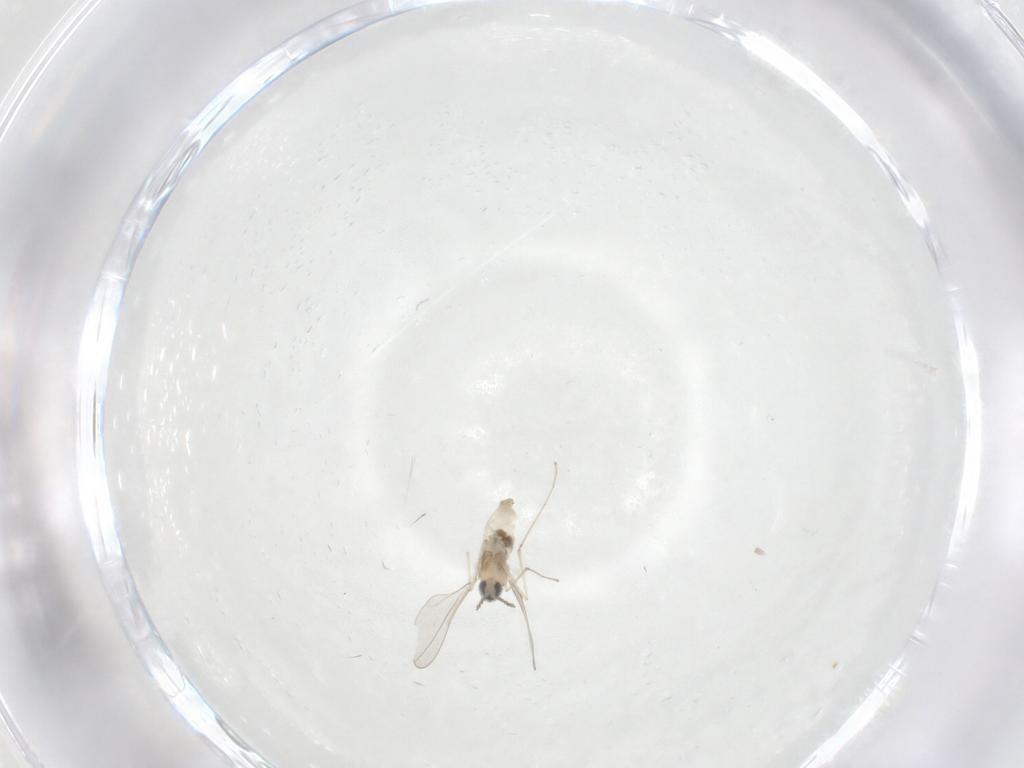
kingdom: Animalia
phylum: Arthropoda
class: Insecta
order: Diptera
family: Cecidomyiidae
